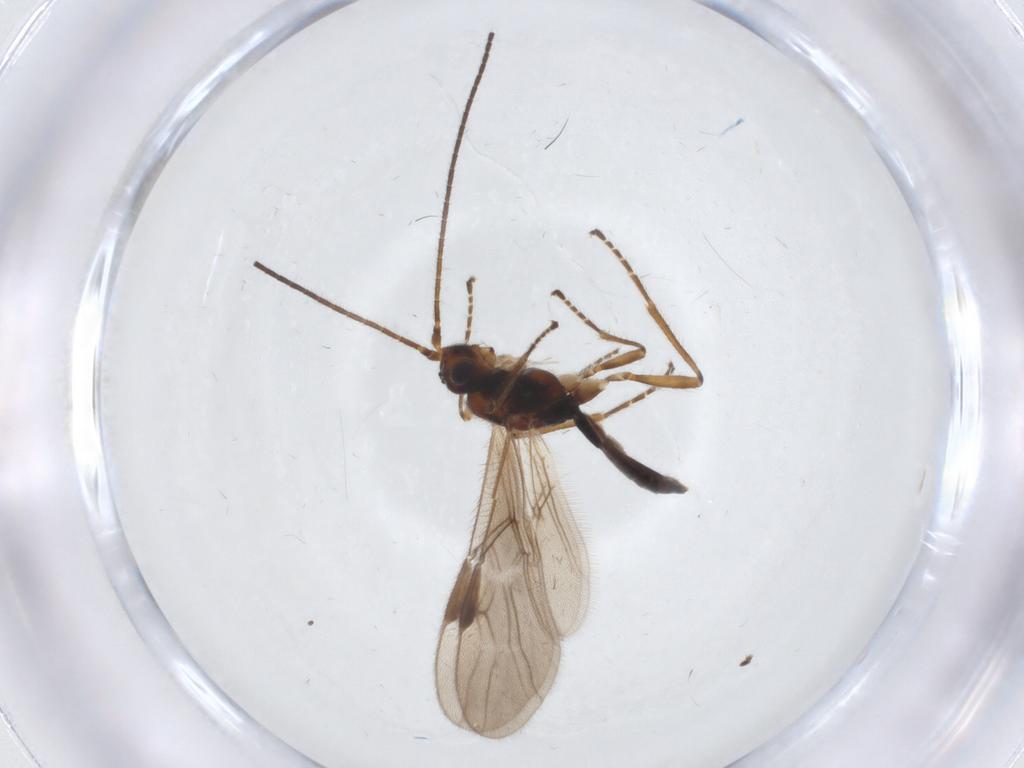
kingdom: Animalia
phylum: Arthropoda
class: Insecta
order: Hymenoptera
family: Braconidae
